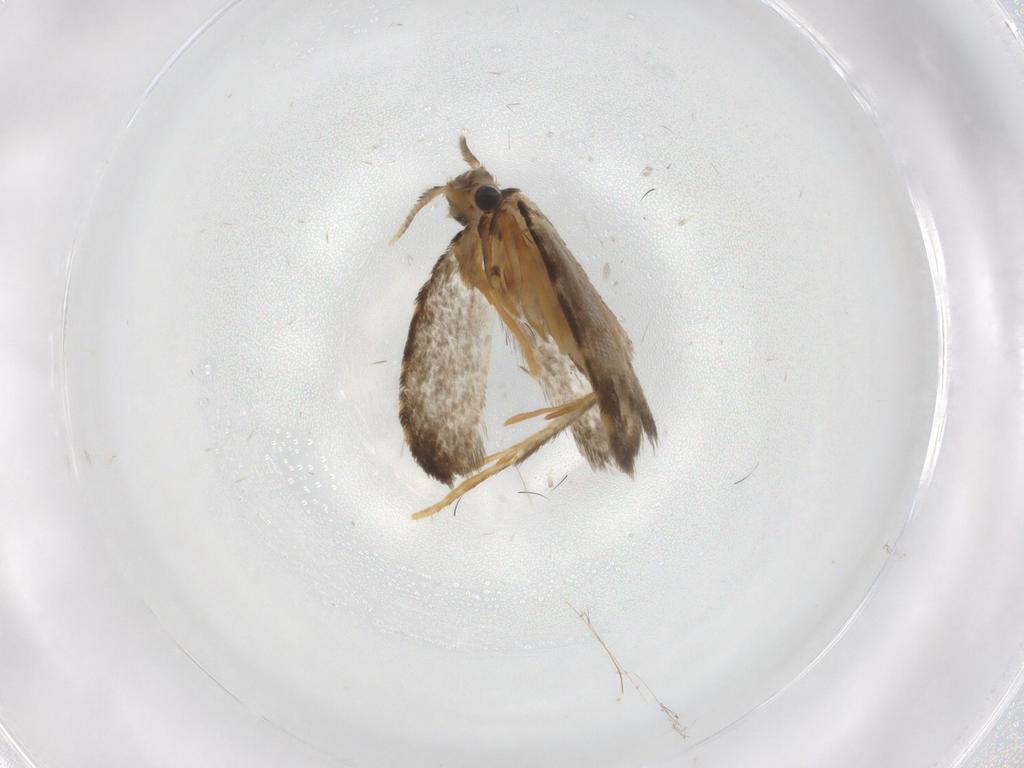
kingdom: Animalia
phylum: Arthropoda
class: Insecta
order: Lepidoptera
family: Psychidae
